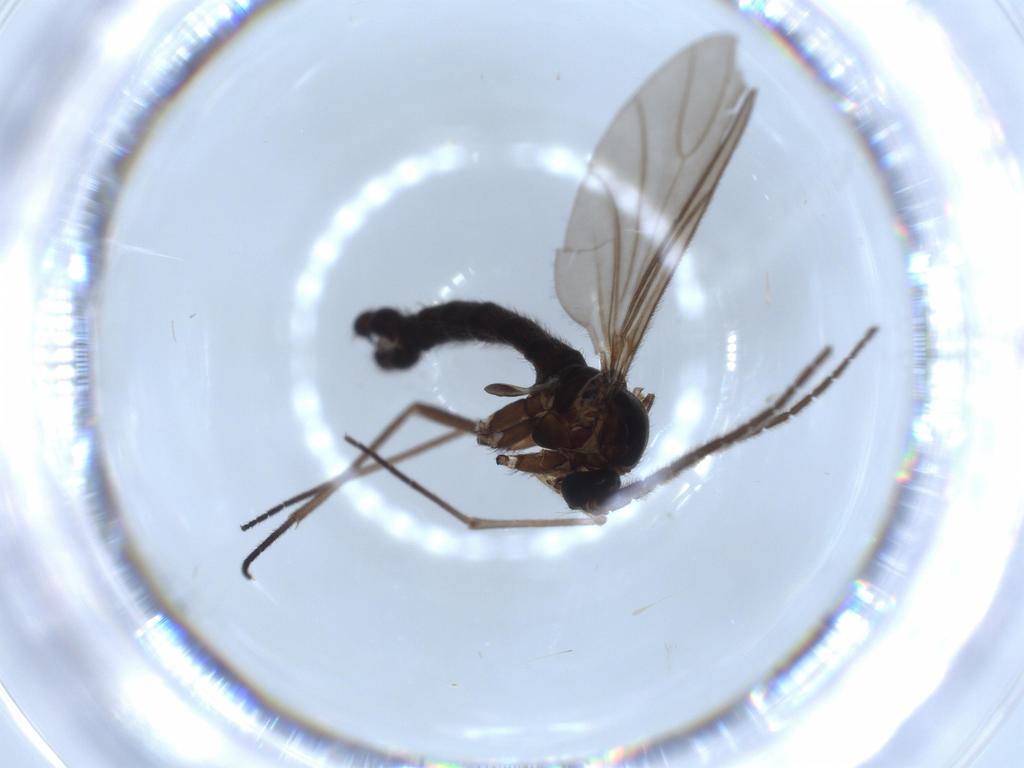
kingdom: Animalia
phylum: Arthropoda
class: Insecta
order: Diptera
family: Sciaridae
